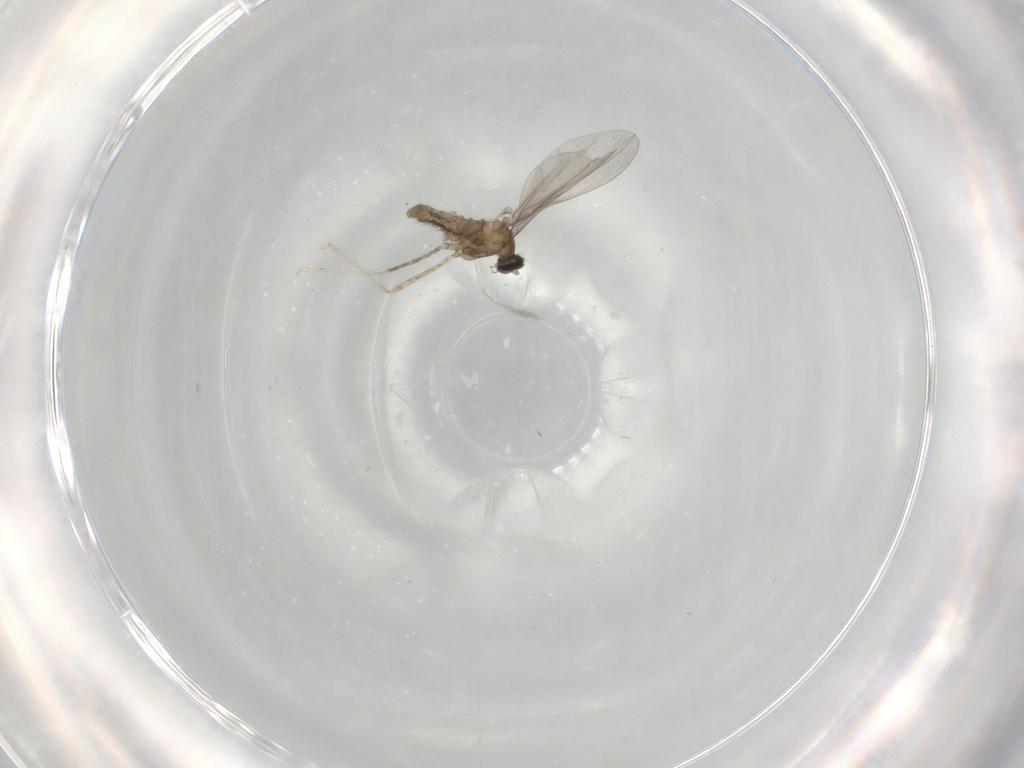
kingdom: Animalia
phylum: Arthropoda
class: Insecta
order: Diptera
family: Cecidomyiidae
